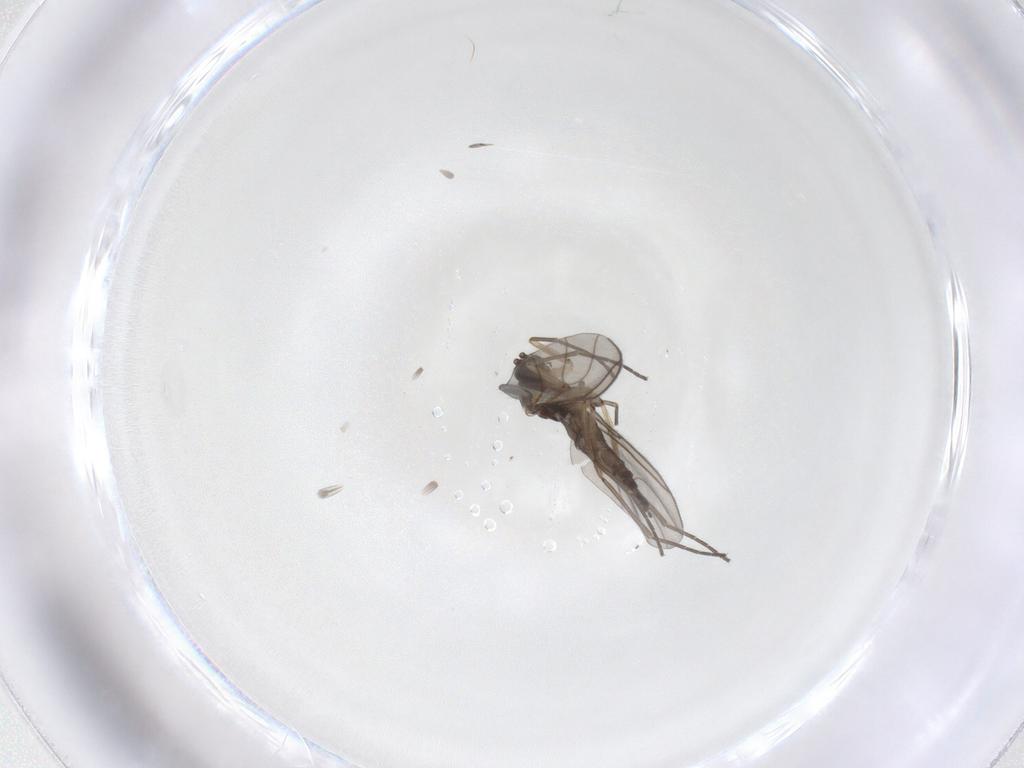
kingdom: Animalia
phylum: Arthropoda
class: Insecta
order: Diptera
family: Sciaridae
